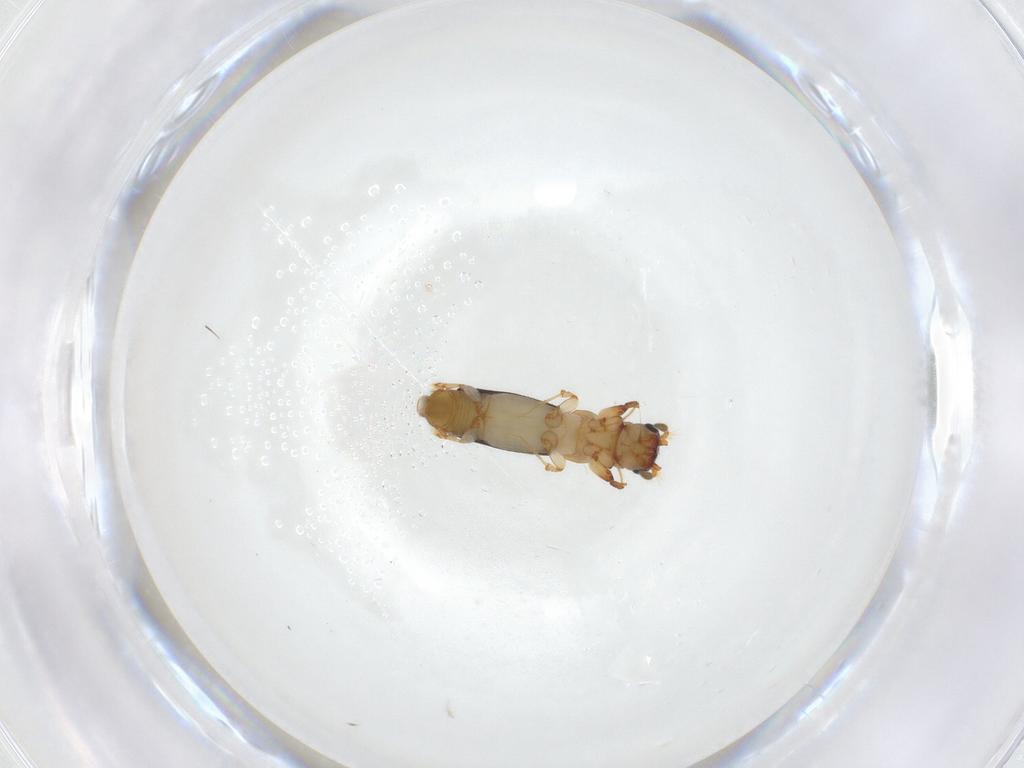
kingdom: Animalia
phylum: Arthropoda
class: Insecta
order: Coleoptera
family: Curculionidae
